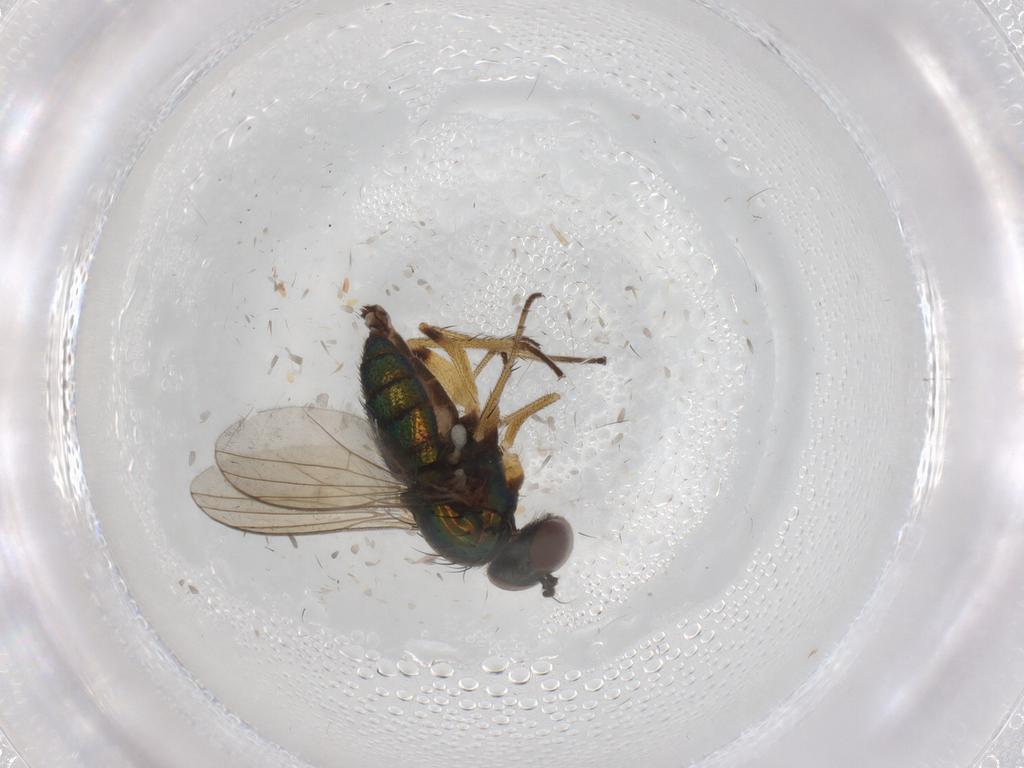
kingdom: Animalia
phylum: Arthropoda
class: Insecta
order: Diptera
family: Dolichopodidae
